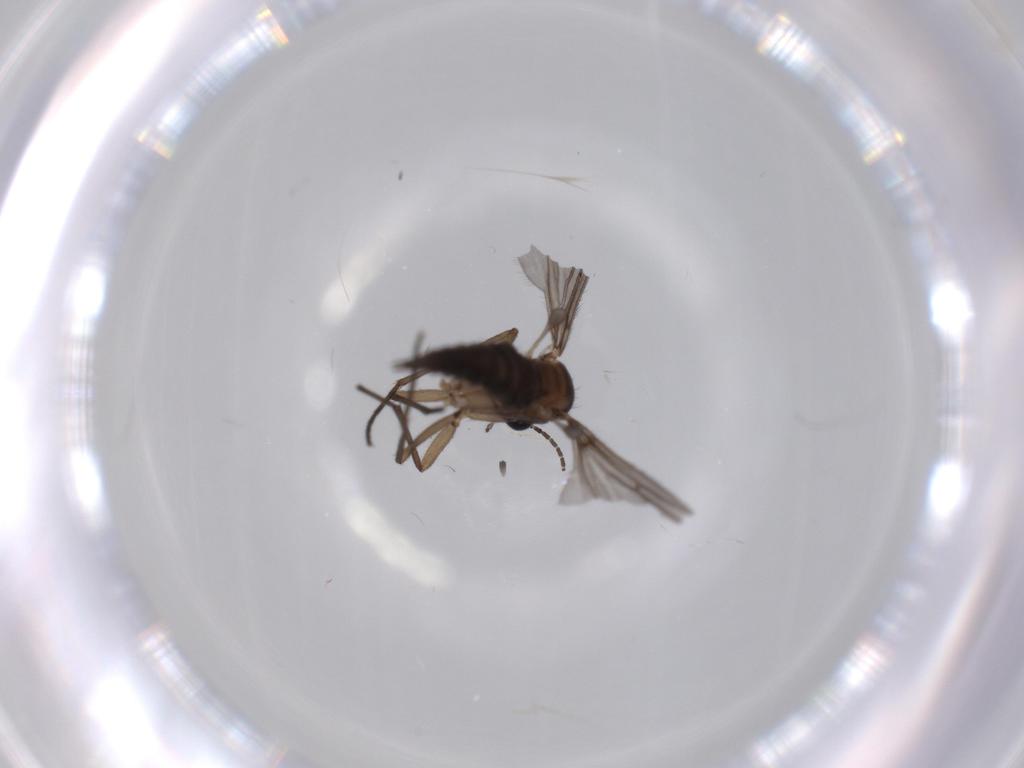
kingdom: Animalia
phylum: Arthropoda
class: Insecta
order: Diptera
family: Sciaridae
